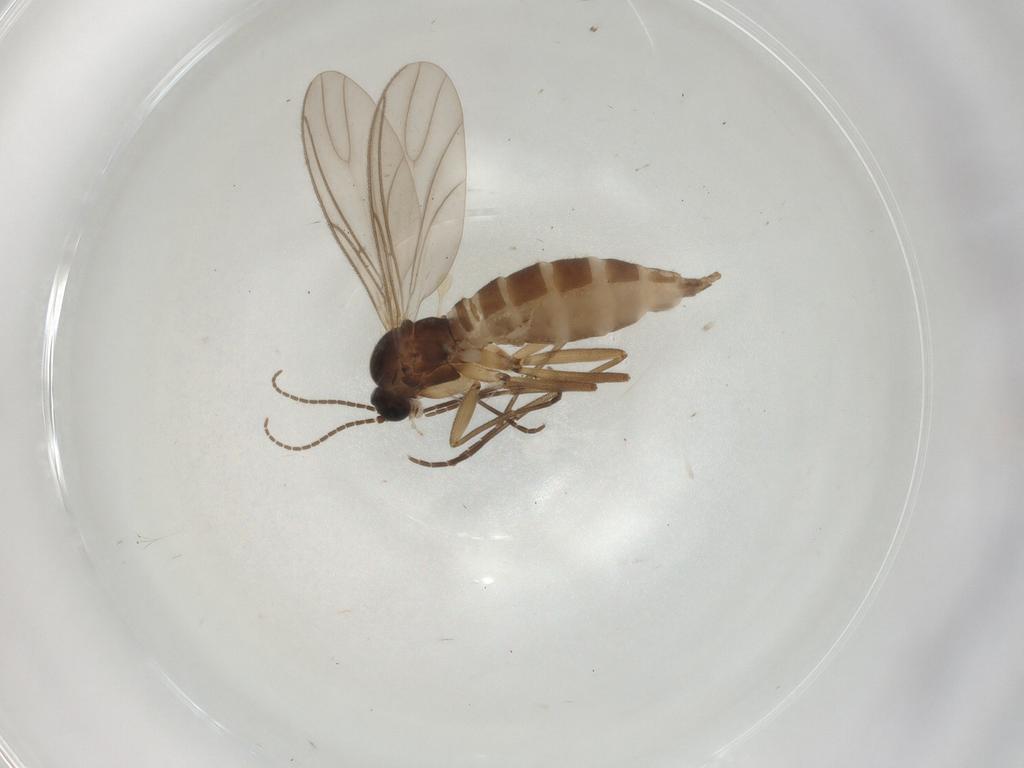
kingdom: Animalia
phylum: Arthropoda
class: Insecta
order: Diptera
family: Sciaridae
